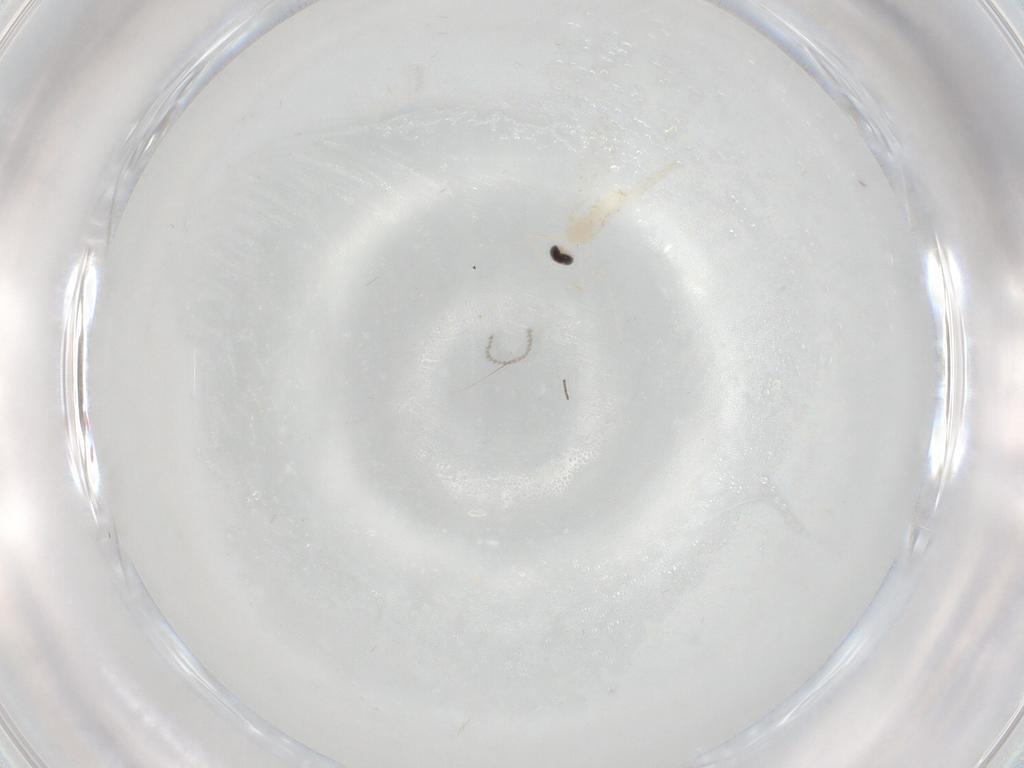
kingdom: Animalia
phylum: Arthropoda
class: Insecta
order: Diptera
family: Cecidomyiidae
